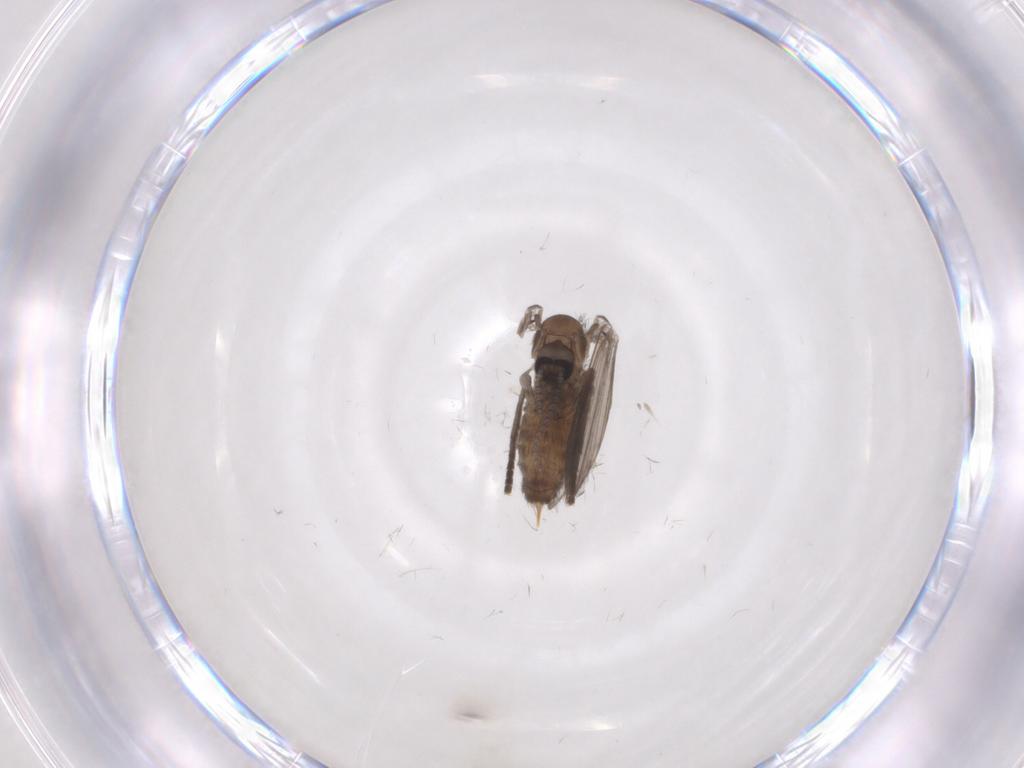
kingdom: Animalia
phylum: Arthropoda
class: Insecta
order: Diptera
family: Psychodidae
